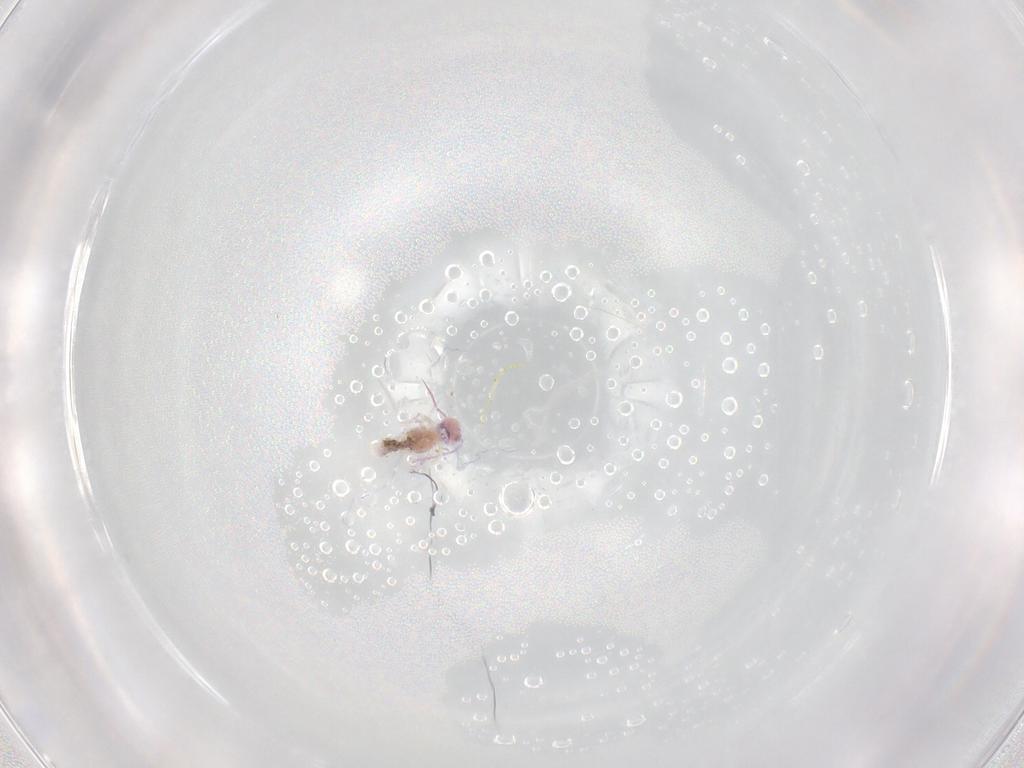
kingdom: Animalia
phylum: Arthropoda
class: Collembola
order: Symphypleona
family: Bourletiellidae
